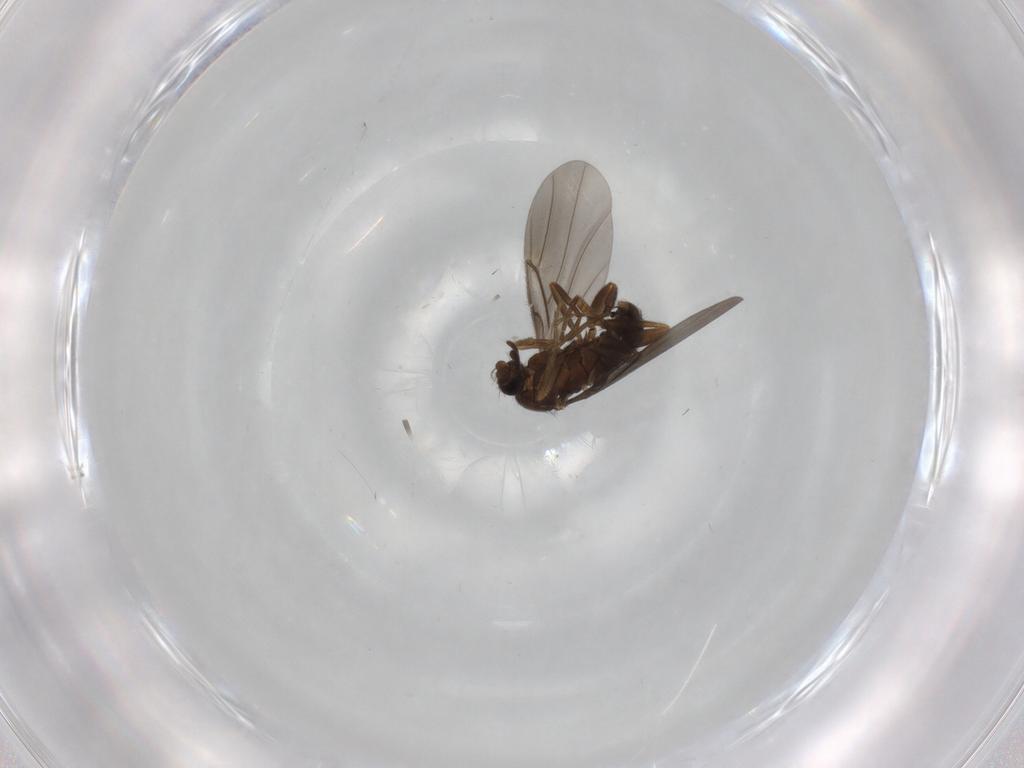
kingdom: Animalia
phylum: Arthropoda
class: Insecta
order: Diptera
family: Phoridae
